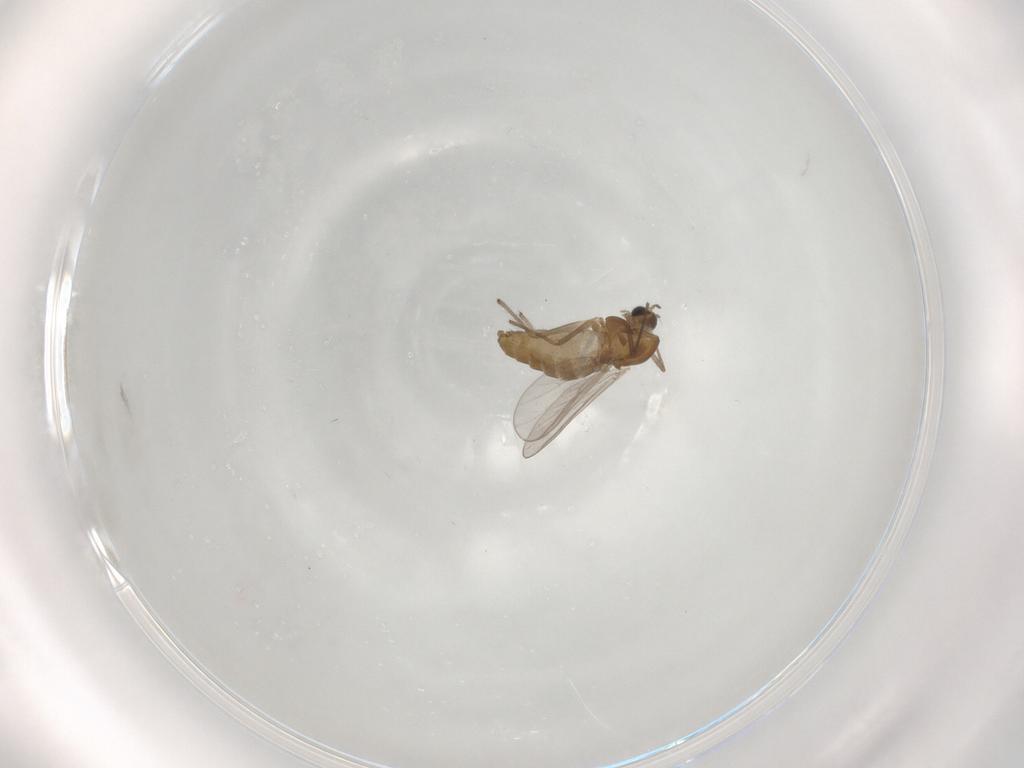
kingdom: Animalia
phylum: Arthropoda
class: Insecta
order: Diptera
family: Chironomidae
